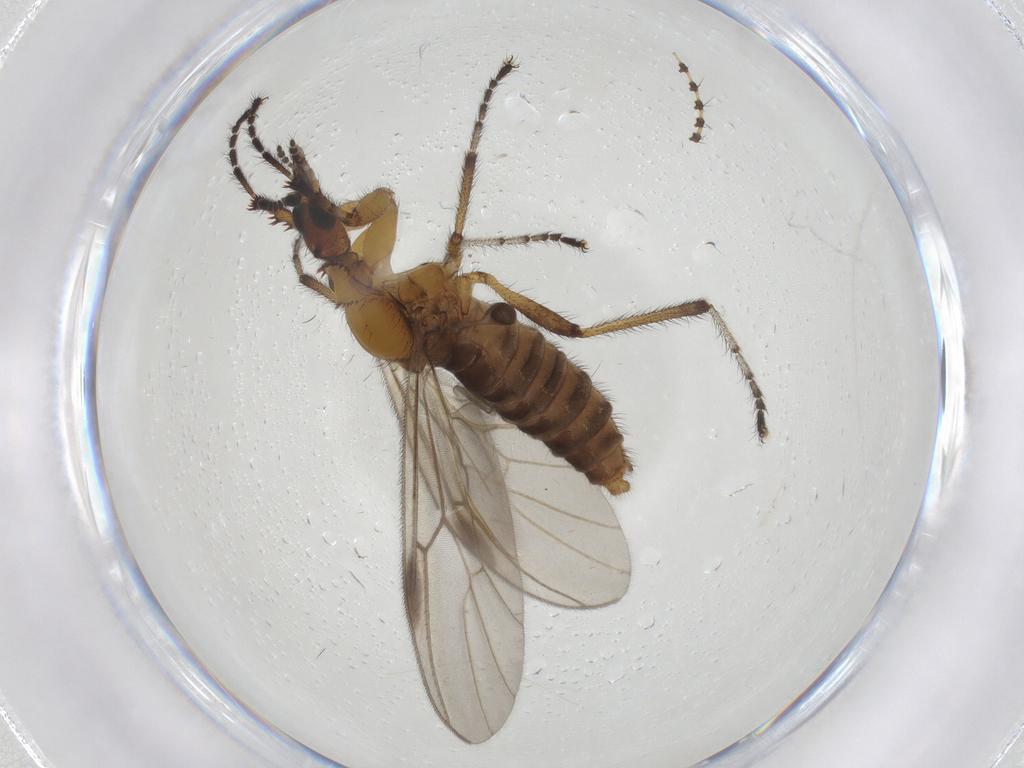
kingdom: Animalia
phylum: Arthropoda
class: Insecta
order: Diptera
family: Bibionidae
